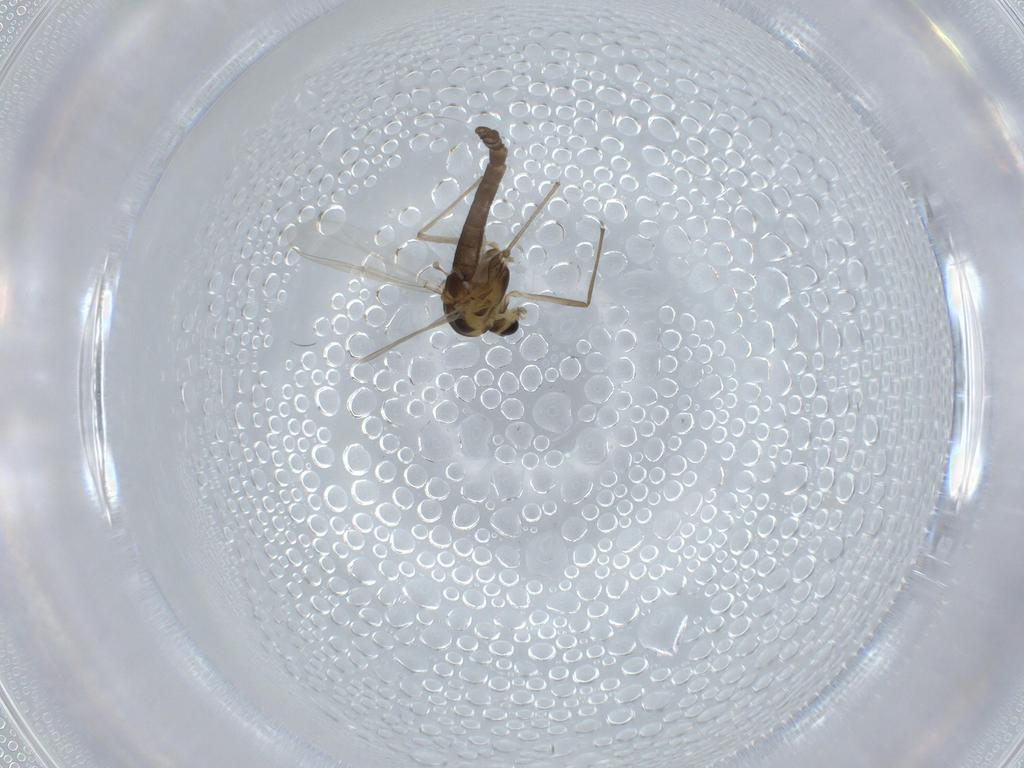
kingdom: Animalia
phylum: Arthropoda
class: Insecta
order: Diptera
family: Chironomidae
